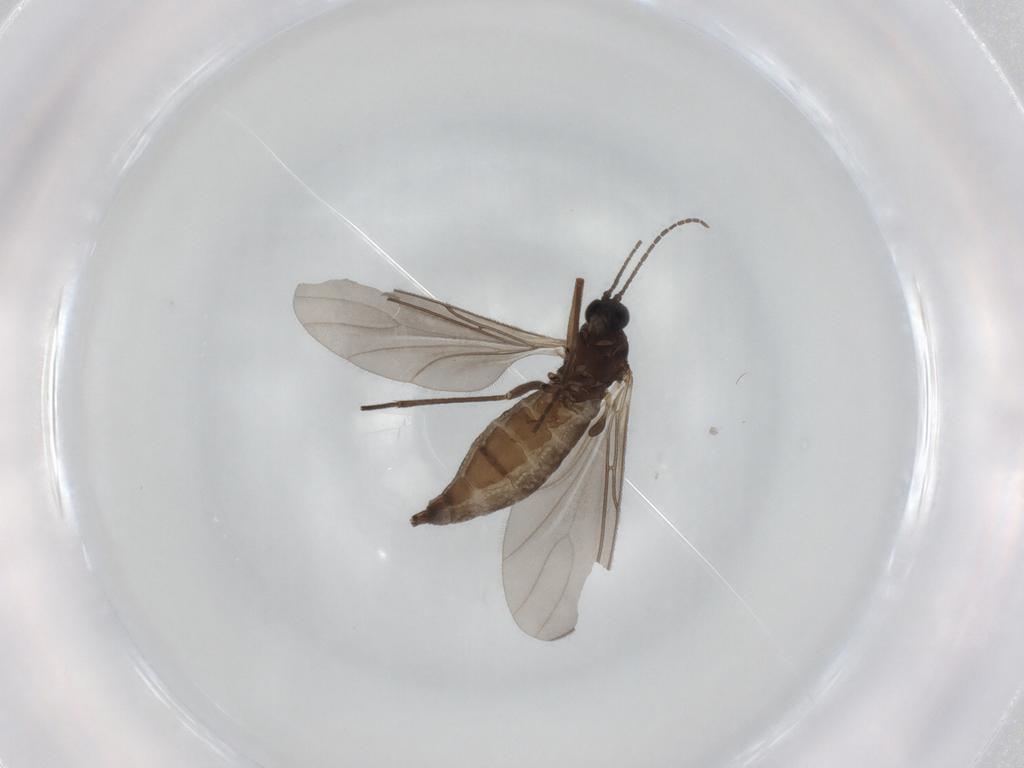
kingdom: Animalia
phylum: Arthropoda
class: Insecta
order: Diptera
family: Sciaridae
